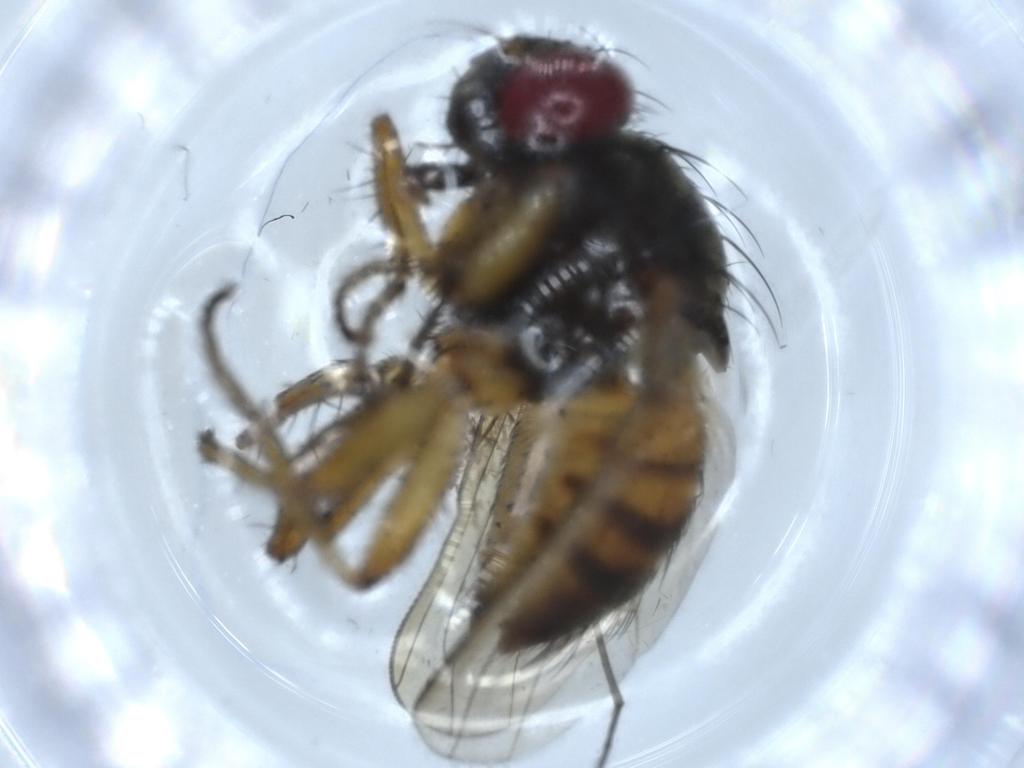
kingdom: Animalia
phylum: Arthropoda
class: Insecta
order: Diptera
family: Muscidae
